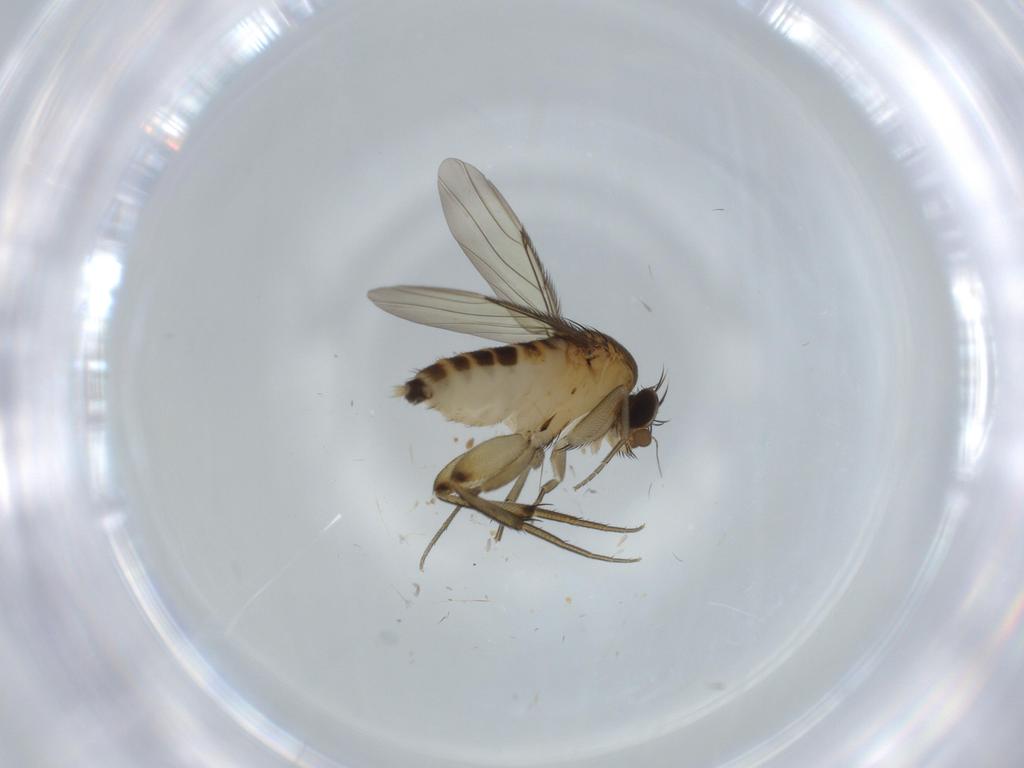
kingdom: Animalia
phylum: Arthropoda
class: Insecta
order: Diptera
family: Phoridae
